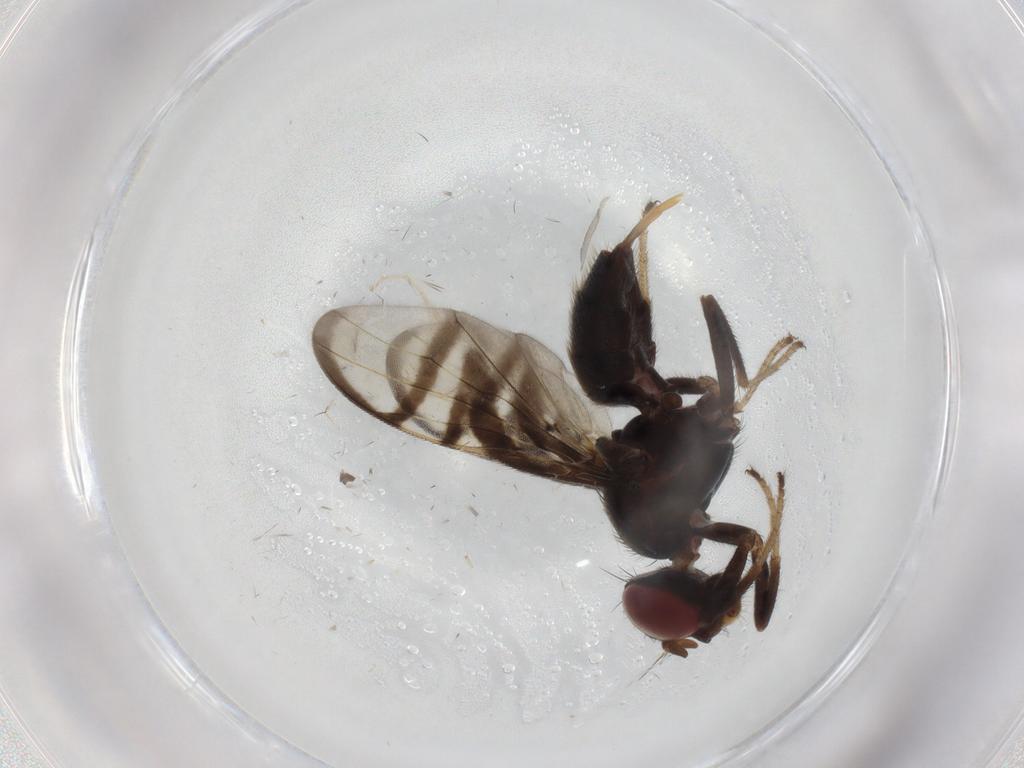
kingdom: Animalia
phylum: Arthropoda
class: Insecta
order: Diptera
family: Chironomidae
